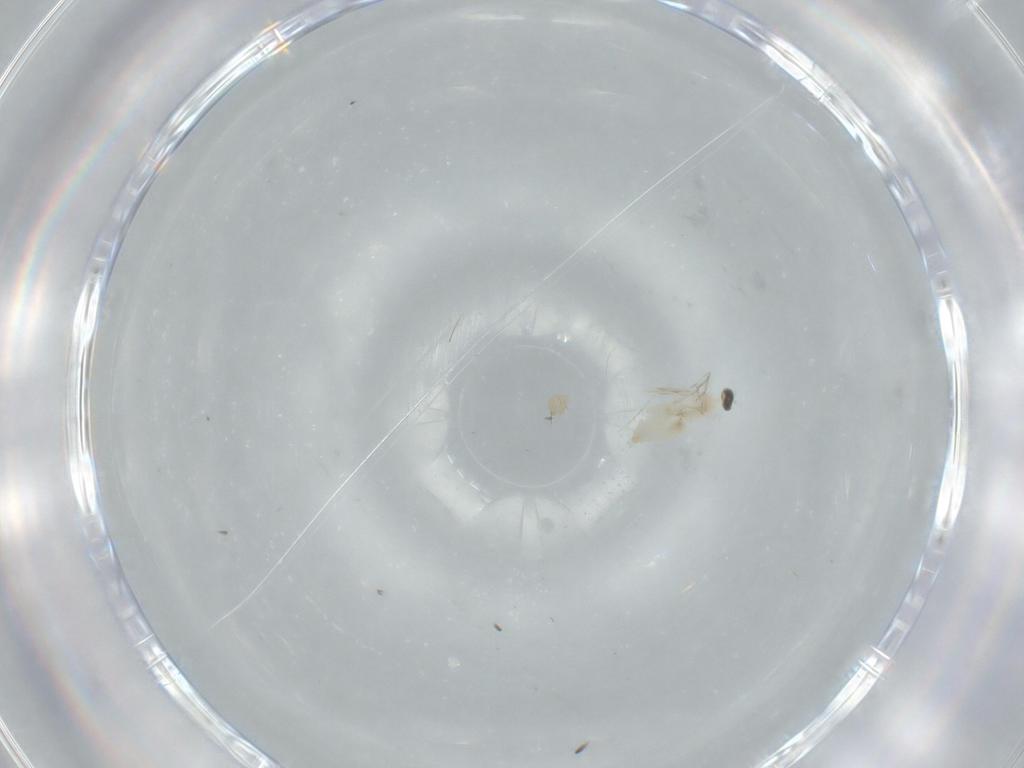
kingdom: Animalia
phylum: Arthropoda
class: Insecta
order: Diptera
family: Cecidomyiidae
